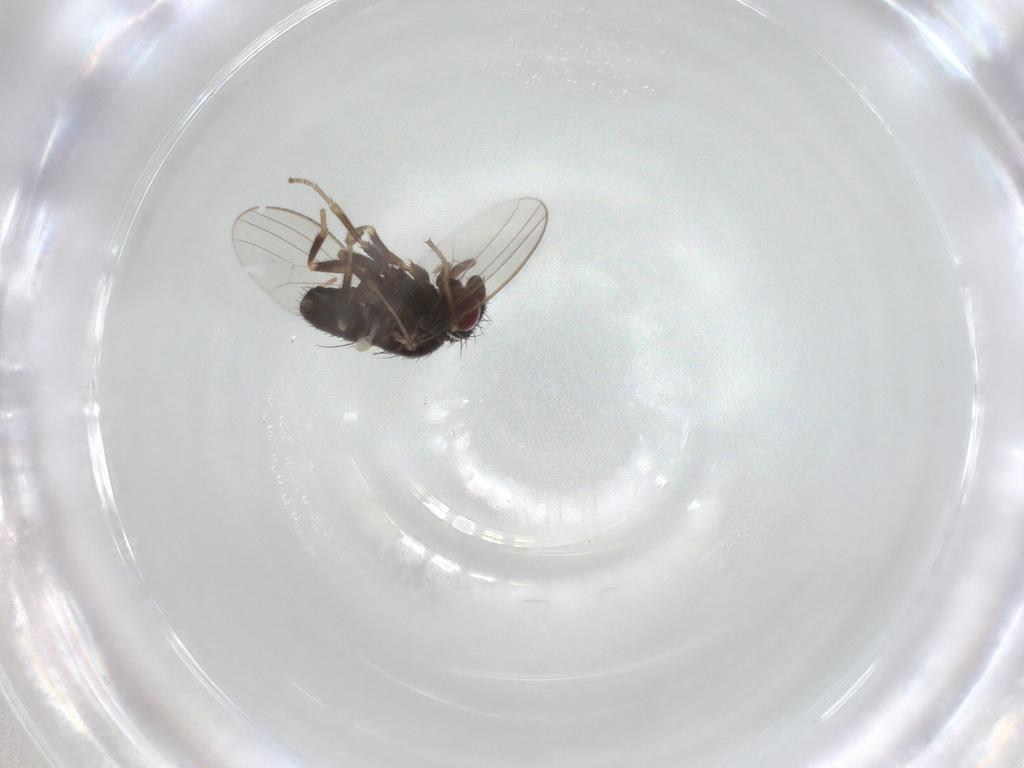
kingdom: Animalia
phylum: Arthropoda
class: Insecta
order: Diptera
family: Milichiidae
